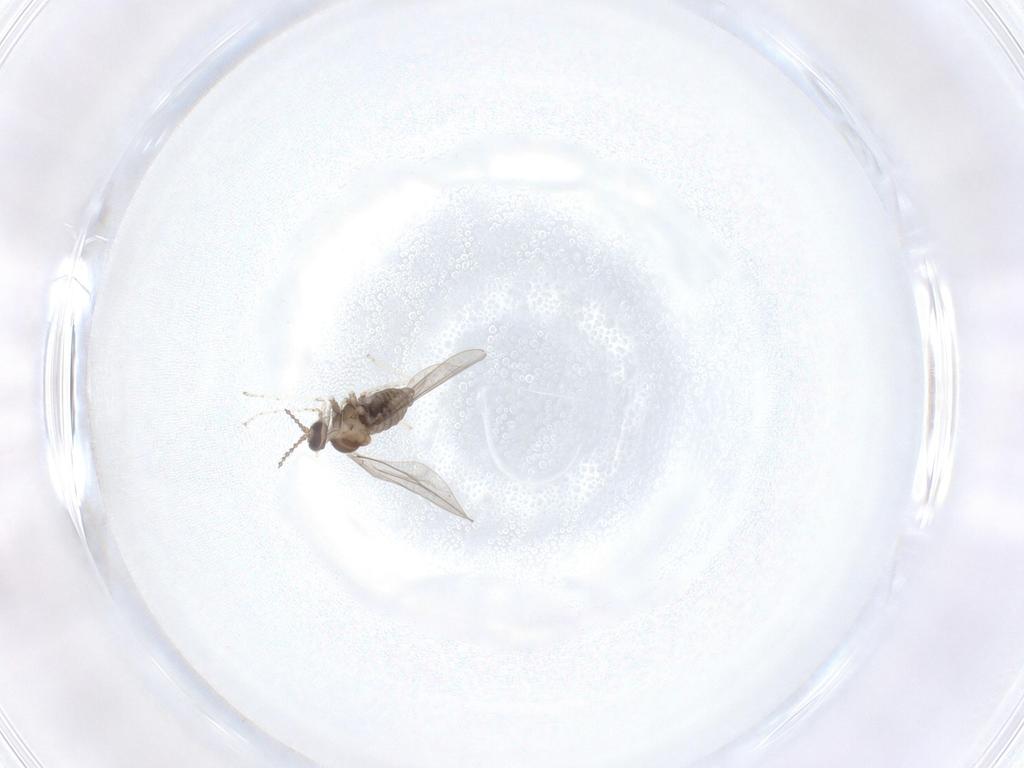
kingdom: Animalia
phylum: Arthropoda
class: Insecta
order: Diptera
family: Cecidomyiidae
